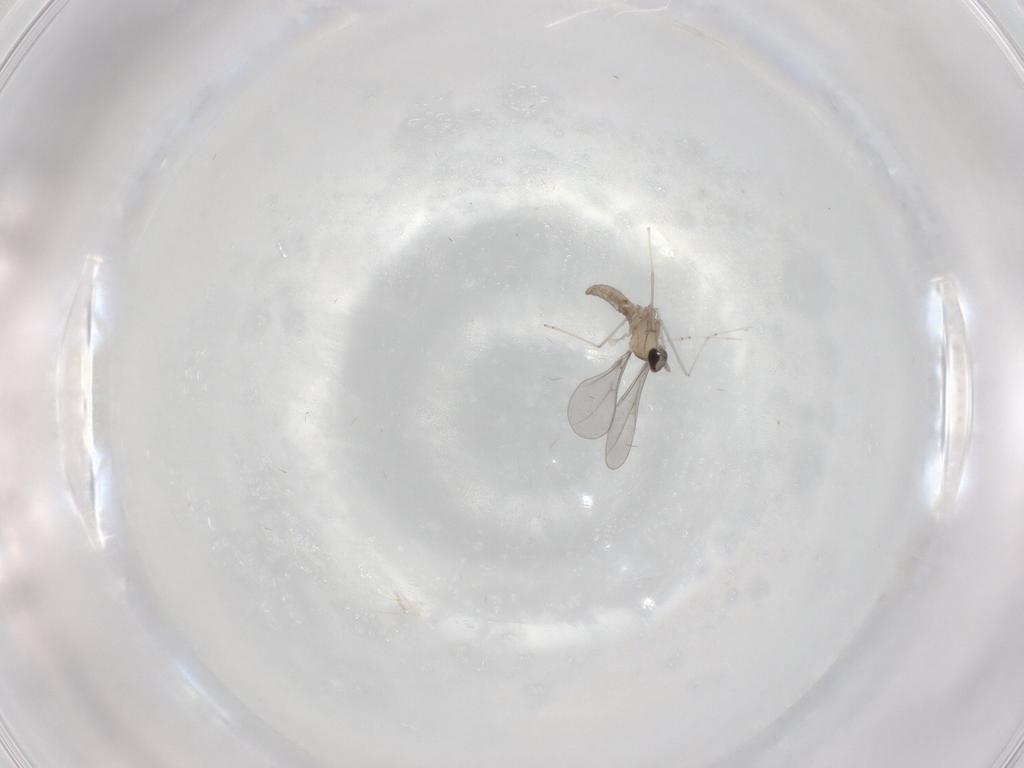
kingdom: Animalia
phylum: Arthropoda
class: Insecta
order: Diptera
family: Cecidomyiidae
